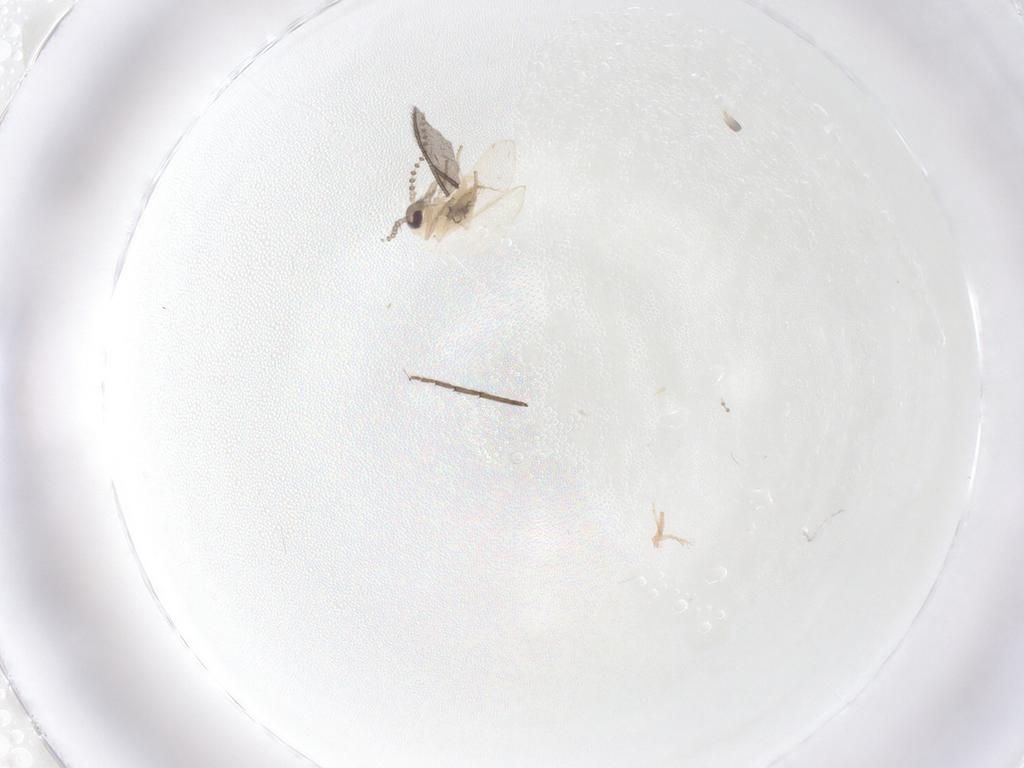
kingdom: Animalia
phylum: Arthropoda
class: Insecta
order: Diptera
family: Psychodidae
